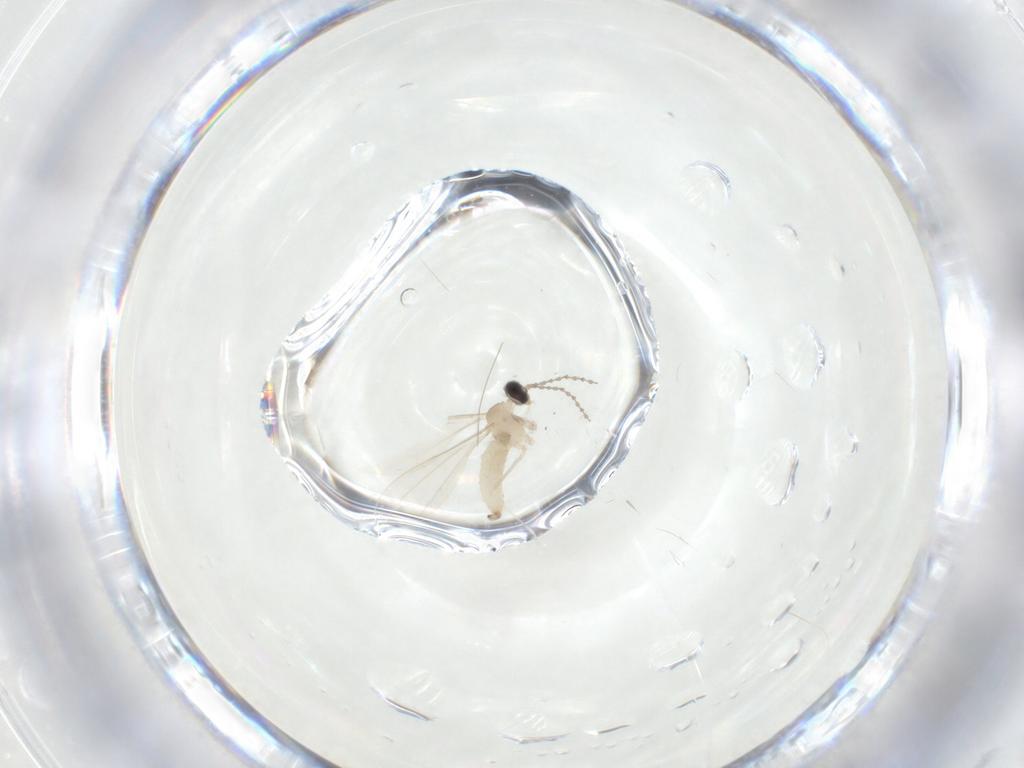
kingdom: Animalia
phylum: Arthropoda
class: Insecta
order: Diptera
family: Cecidomyiidae
